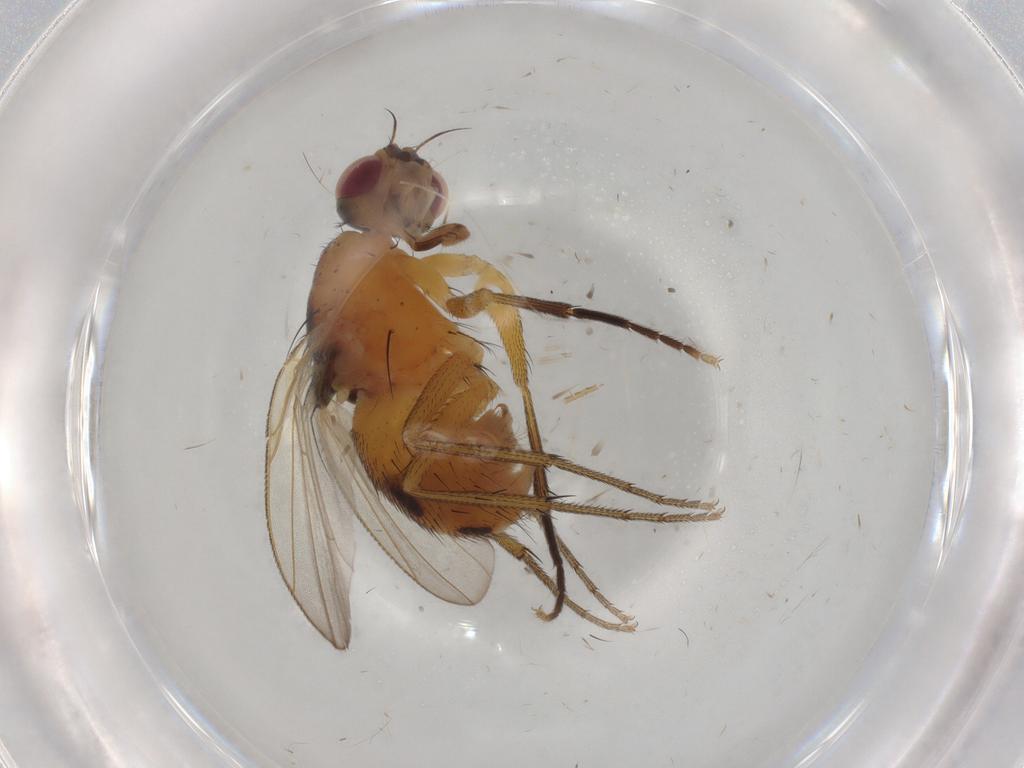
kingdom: Animalia
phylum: Arthropoda
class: Insecta
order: Diptera
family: Muscidae
